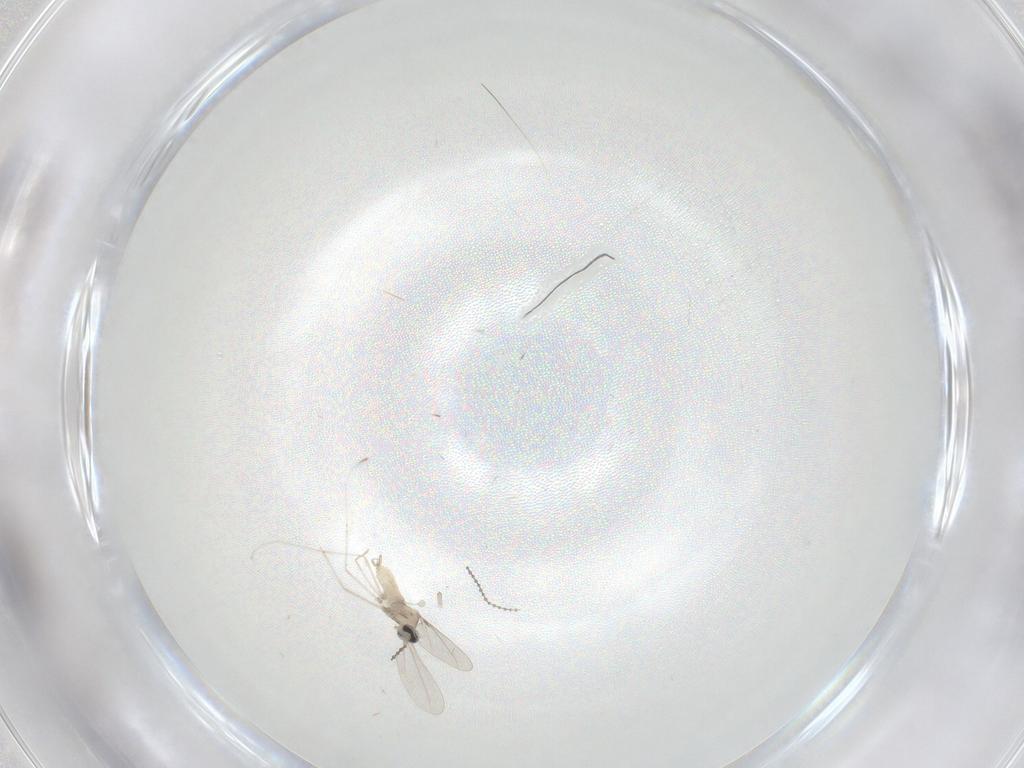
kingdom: Animalia
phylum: Arthropoda
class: Insecta
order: Diptera
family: Cecidomyiidae
